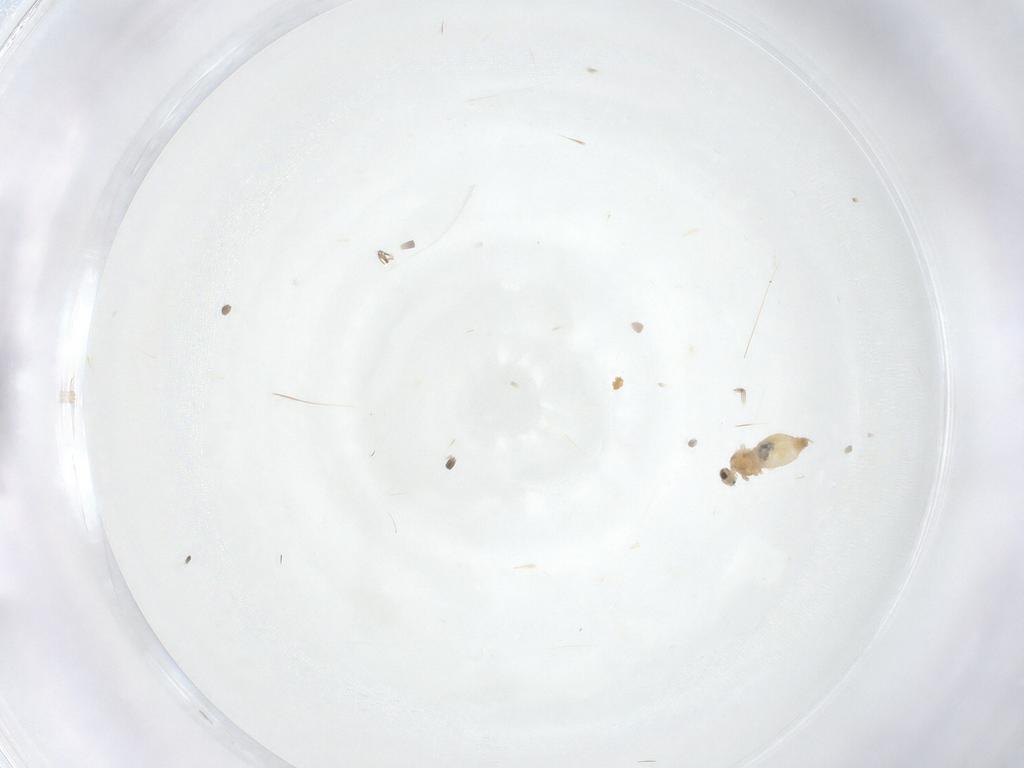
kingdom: Animalia
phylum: Arthropoda
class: Insecta
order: Diptera
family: Cecidomyiidae
